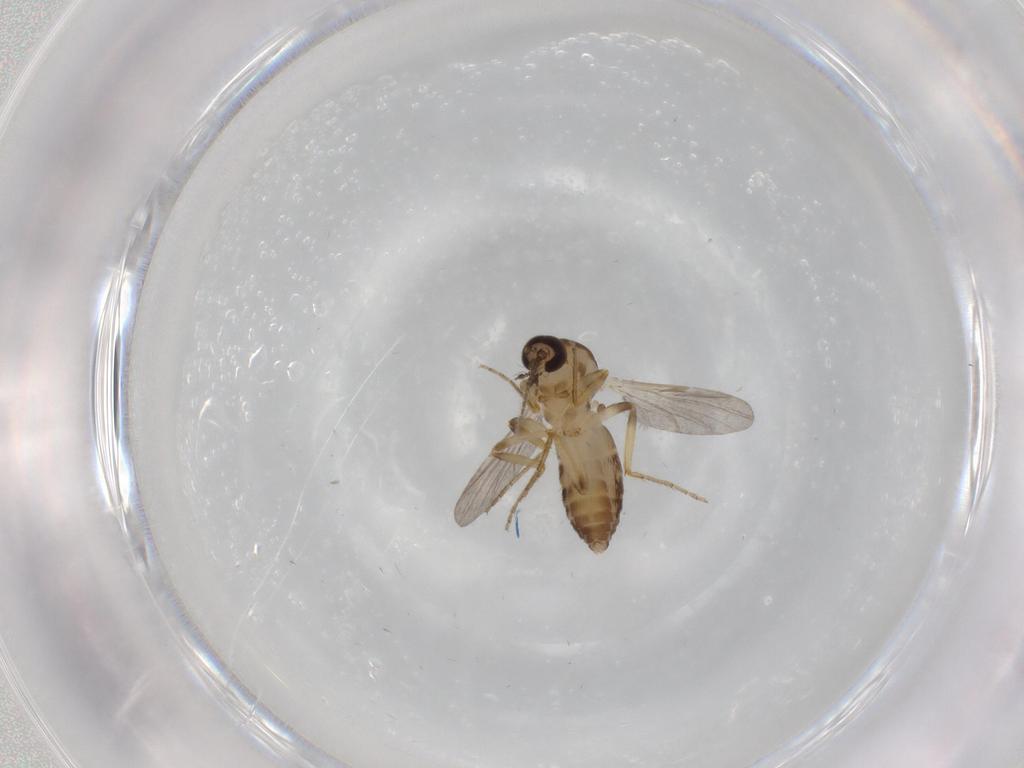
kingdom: Animalia
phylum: Arthropoda
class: Insecta
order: Diptera
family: Ceratopogonidae
